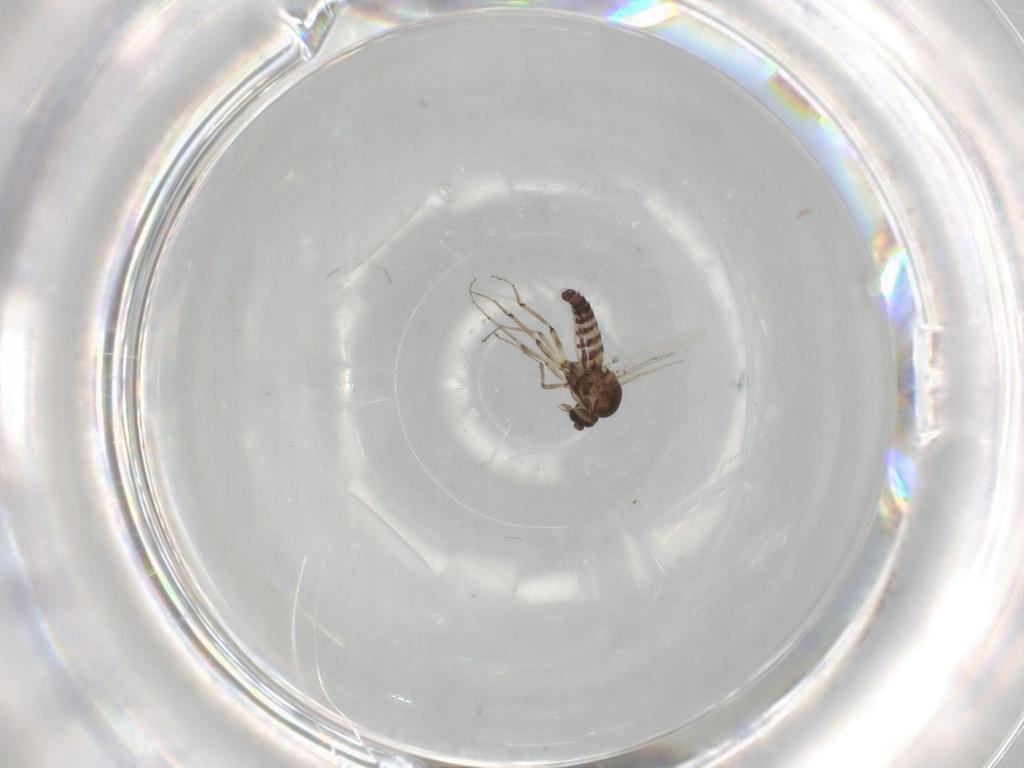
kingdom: Animalia
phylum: Arthropoda
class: Insecta
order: Diptera
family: Ceratopogonidae
